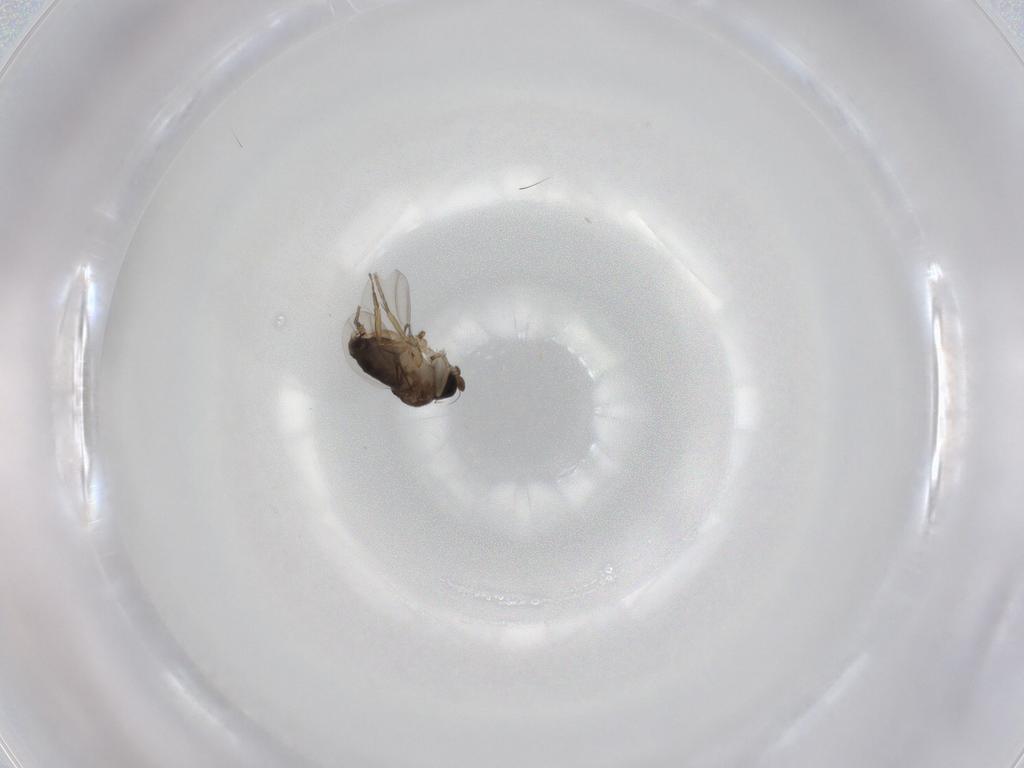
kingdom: Animalia
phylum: Arthropoda
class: Insecta
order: Diptera
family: Phoridae
